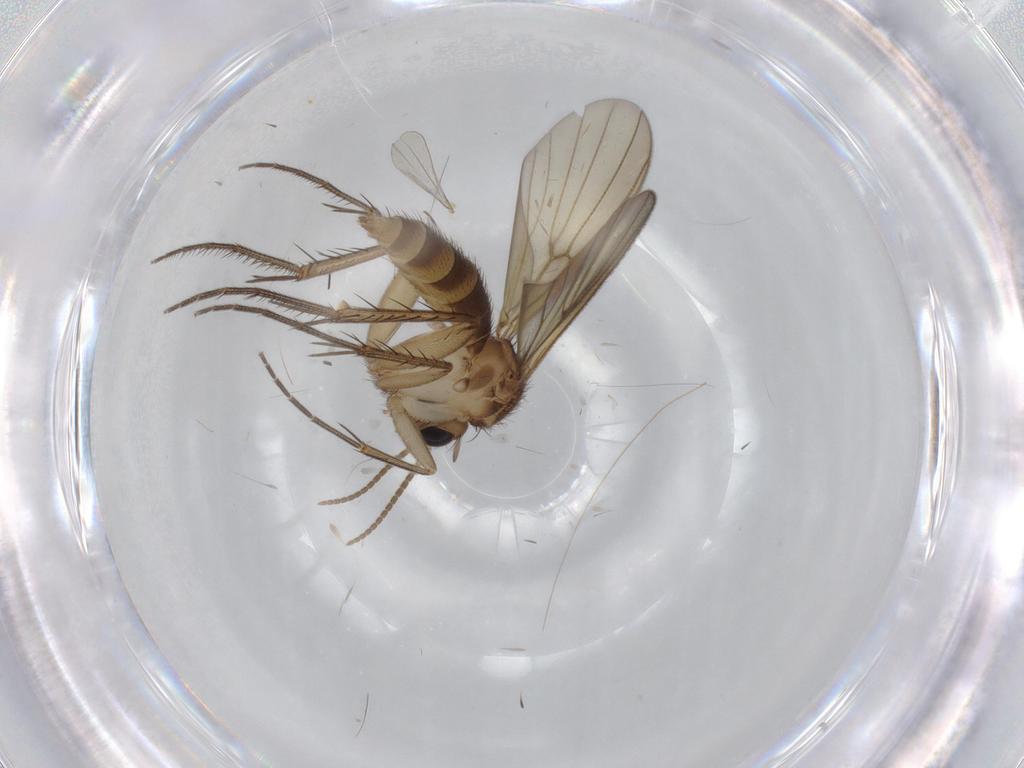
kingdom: Animalia
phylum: Arthropoda
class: Insecta
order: Diptera
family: Mycetophilidae
